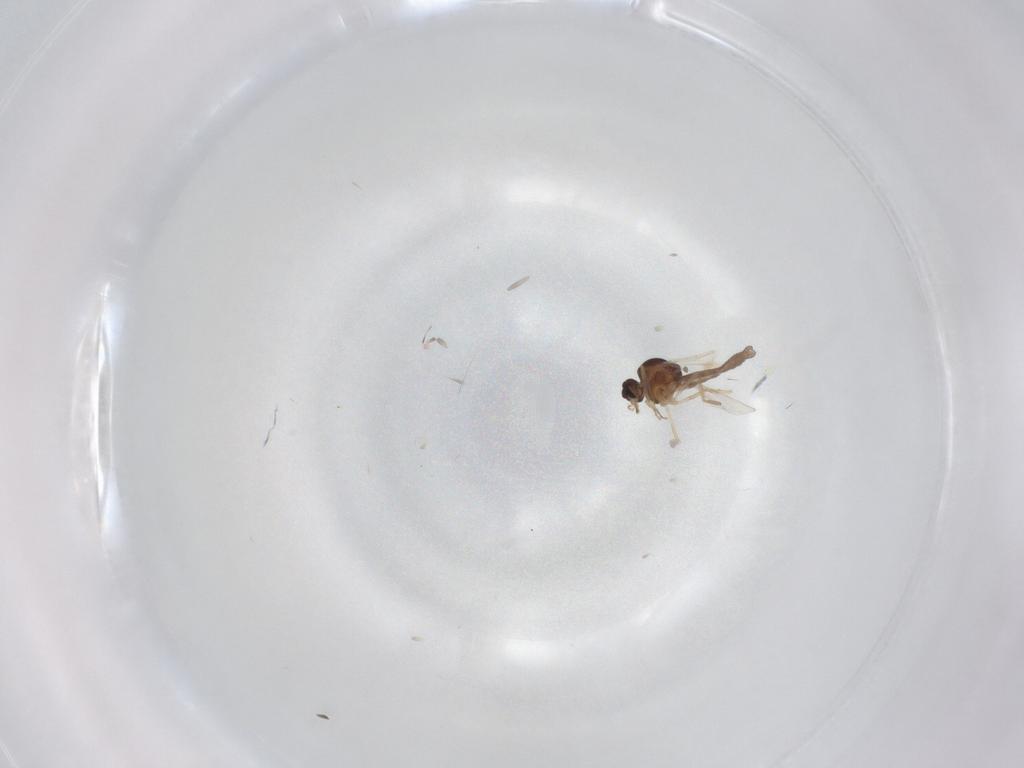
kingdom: Animalia
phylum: Arthropoda
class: Insecta
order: Diptera
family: Ceratopogonidae
